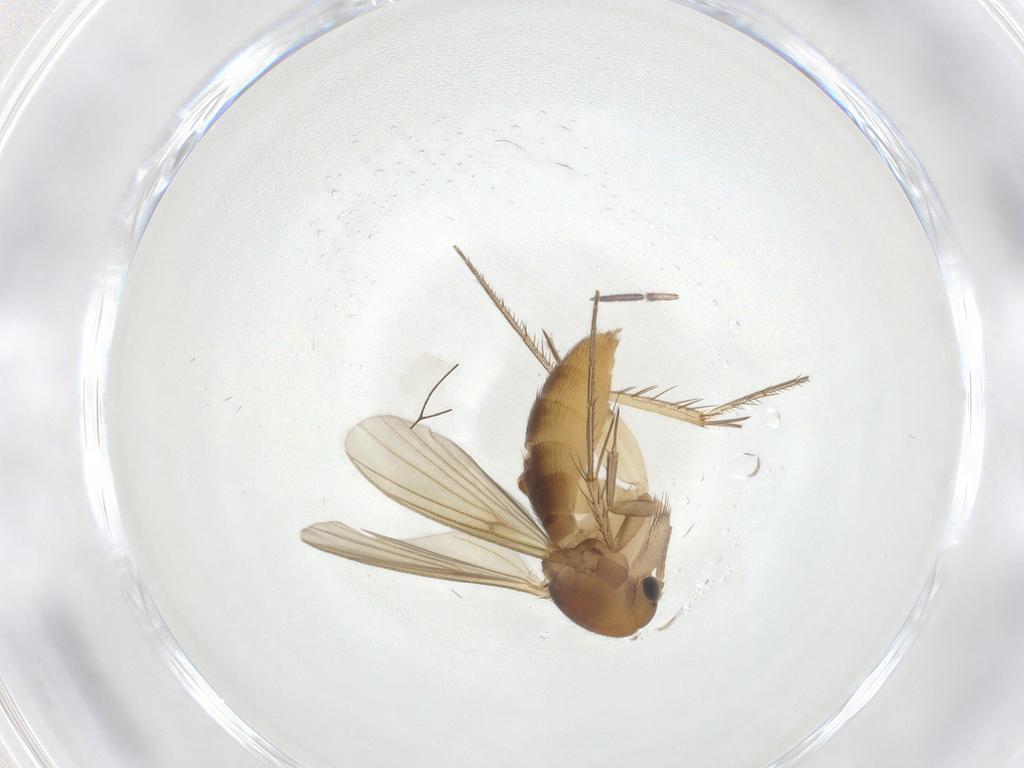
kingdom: Animalia
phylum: Arthropoda
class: Insecta
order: Diptera
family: Mycetophilidae
